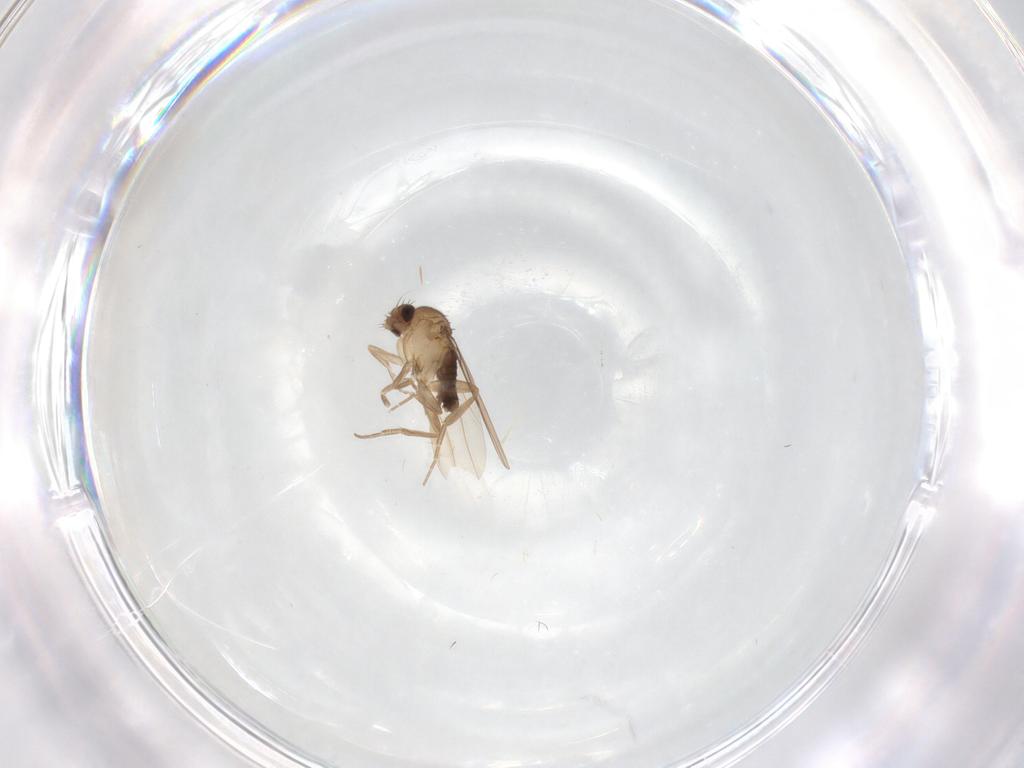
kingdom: Animalia
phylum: Arthropoda
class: Insecta
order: Diptera
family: Phoridae
